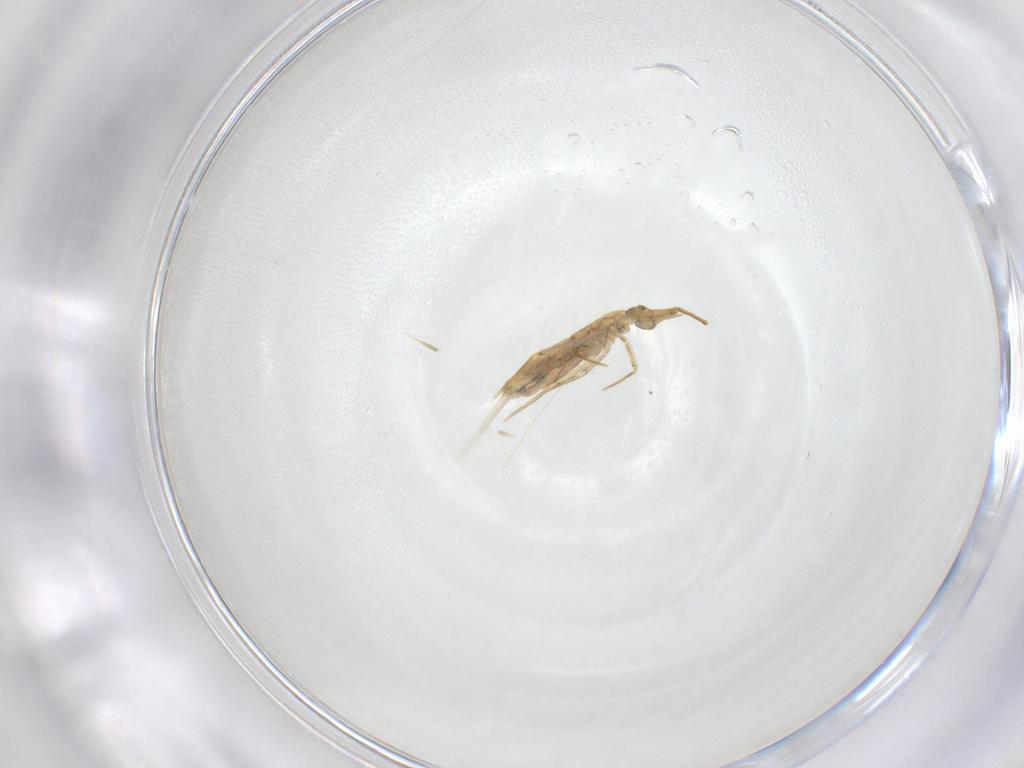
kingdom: Animalia
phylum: Arthropoda
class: Collembola
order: Entomobryomorpha
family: Entomobryidae
